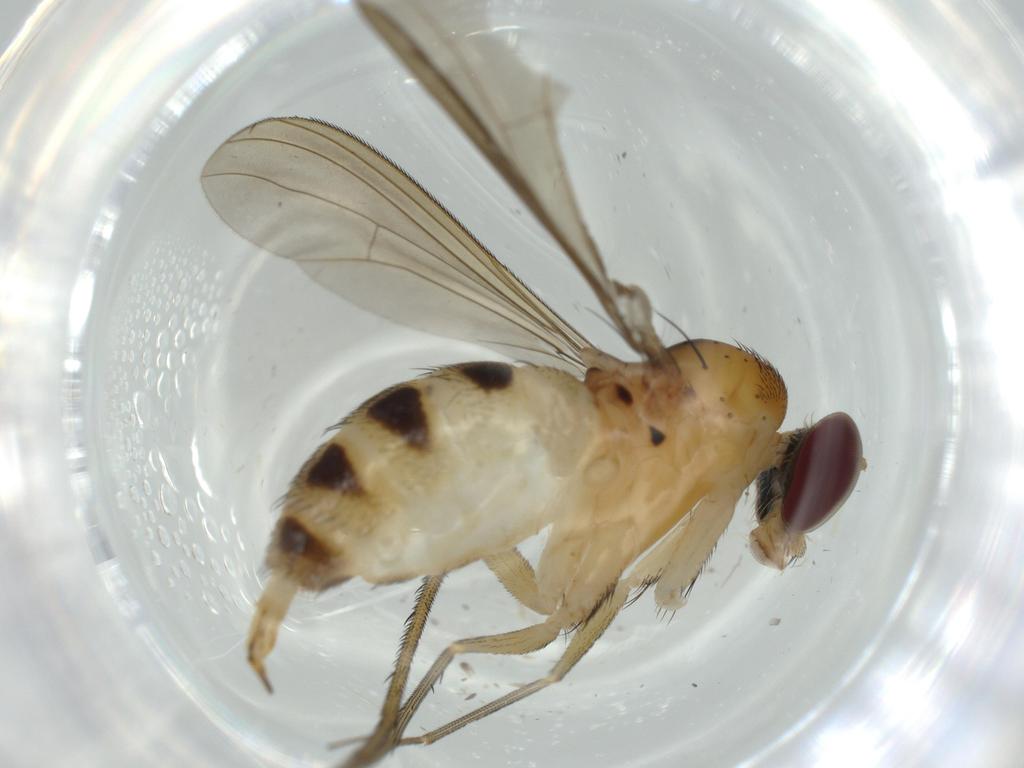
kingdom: Animalia
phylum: Arthropoda
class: Insecta
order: Diptera
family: Dolichopodidae
